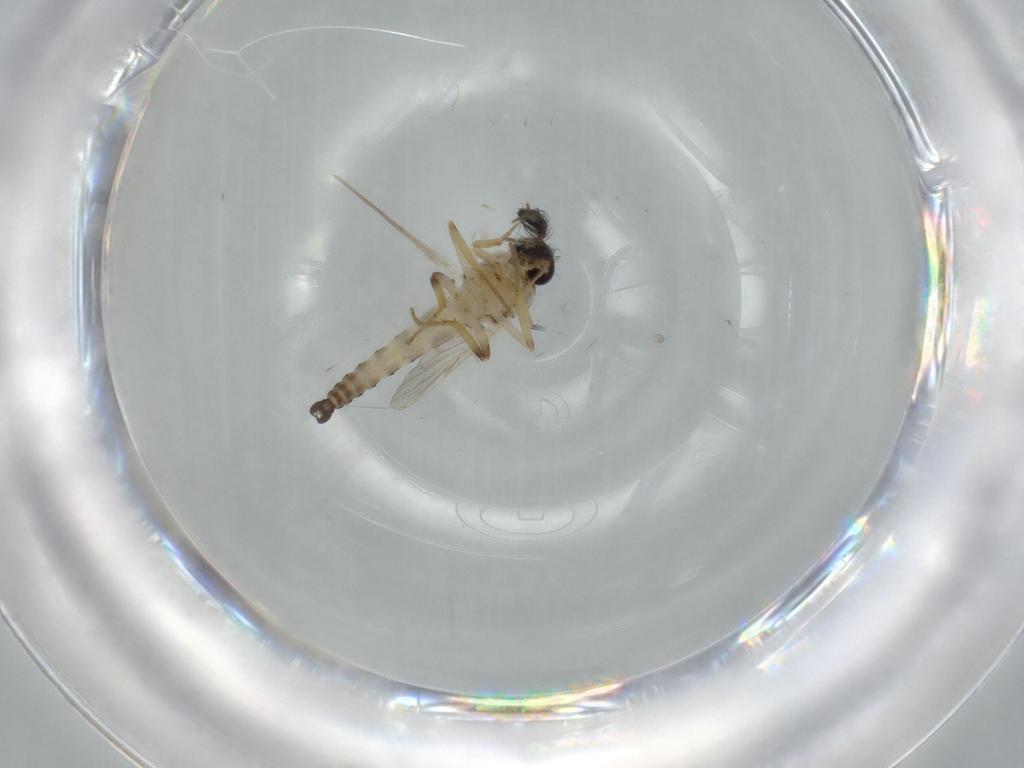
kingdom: Animalia
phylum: Arthropoda
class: Insecta
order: Diptera
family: Ceratopogonidae
